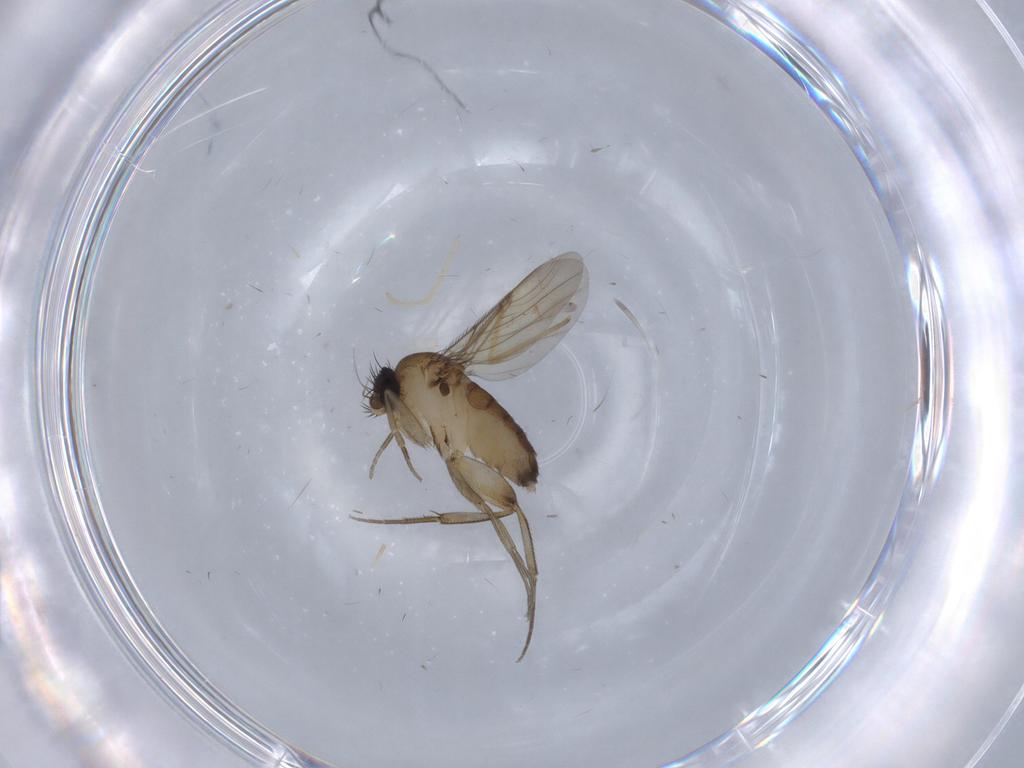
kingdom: Animalia
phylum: Arthropoda
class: Insecta
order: Diptera
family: Phoridae
